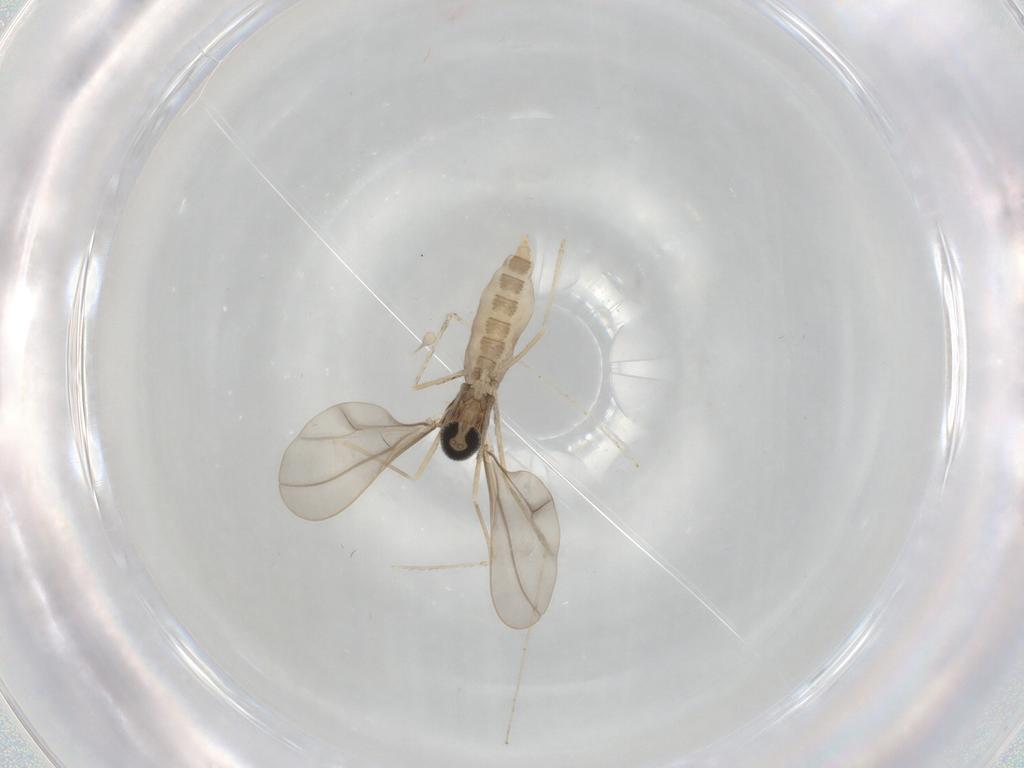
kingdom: Animalia
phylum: Arthropoda
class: Insecta
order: Diptera
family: Cecidomyiidae
